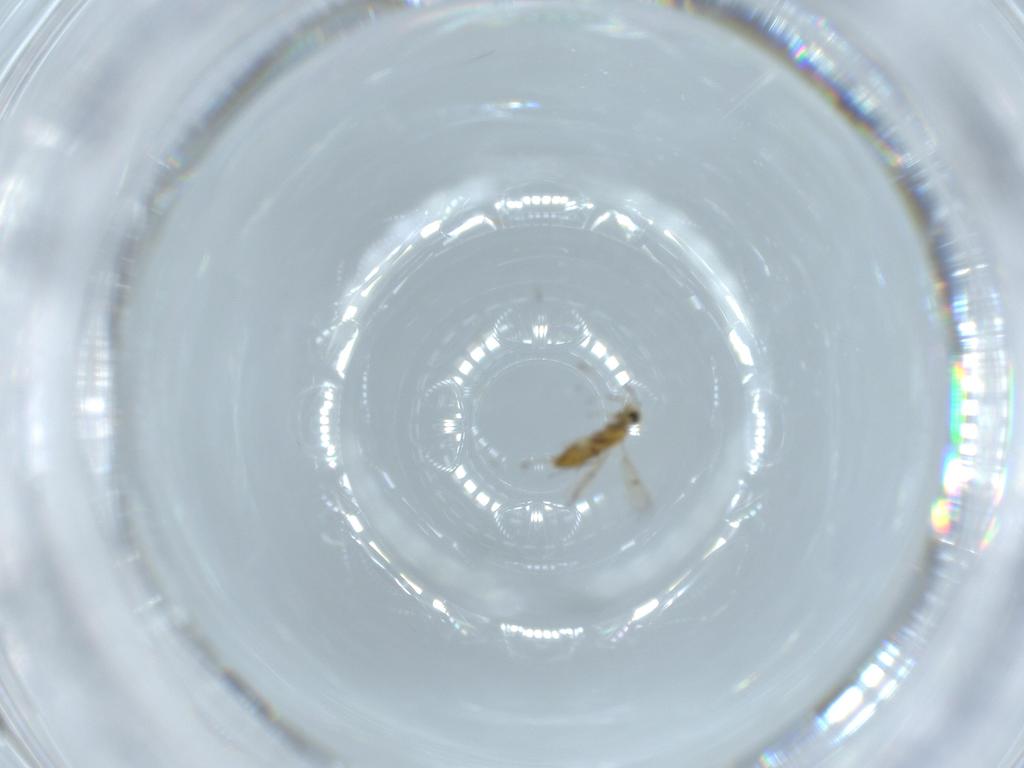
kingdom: Animalia
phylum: Arthropoda
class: Insecta
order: Hymenoptera
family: Trichogrammatidae
